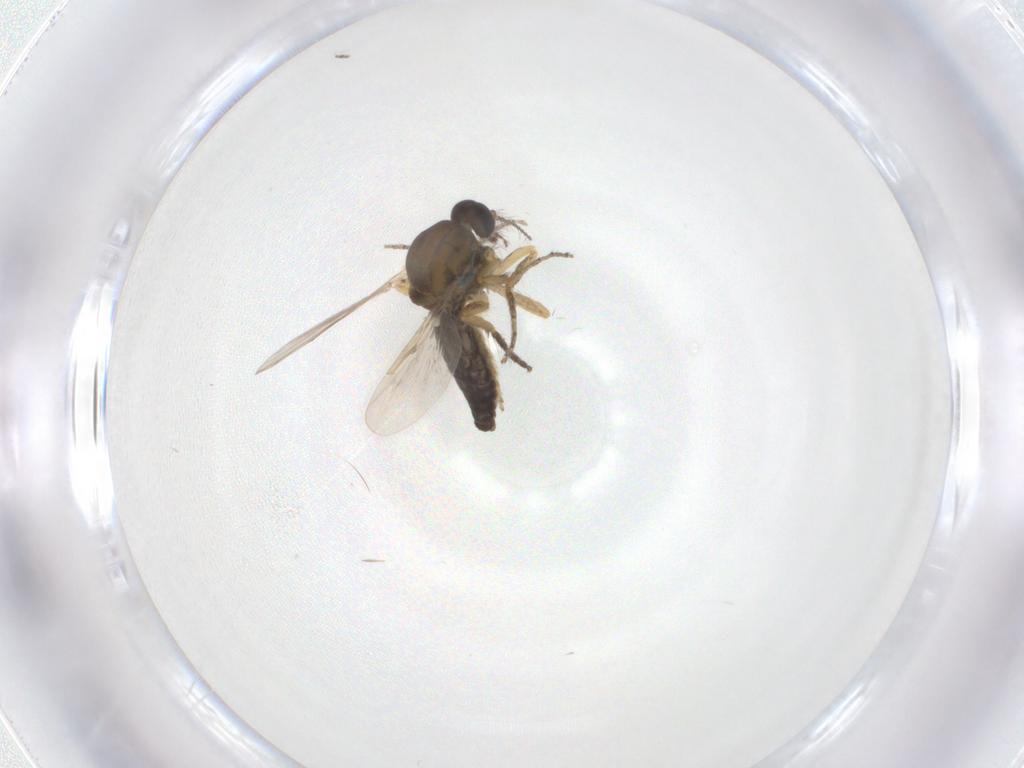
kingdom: Animalia
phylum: Arthropoda
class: Insecta
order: Diptera
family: Ceratopogonidae
